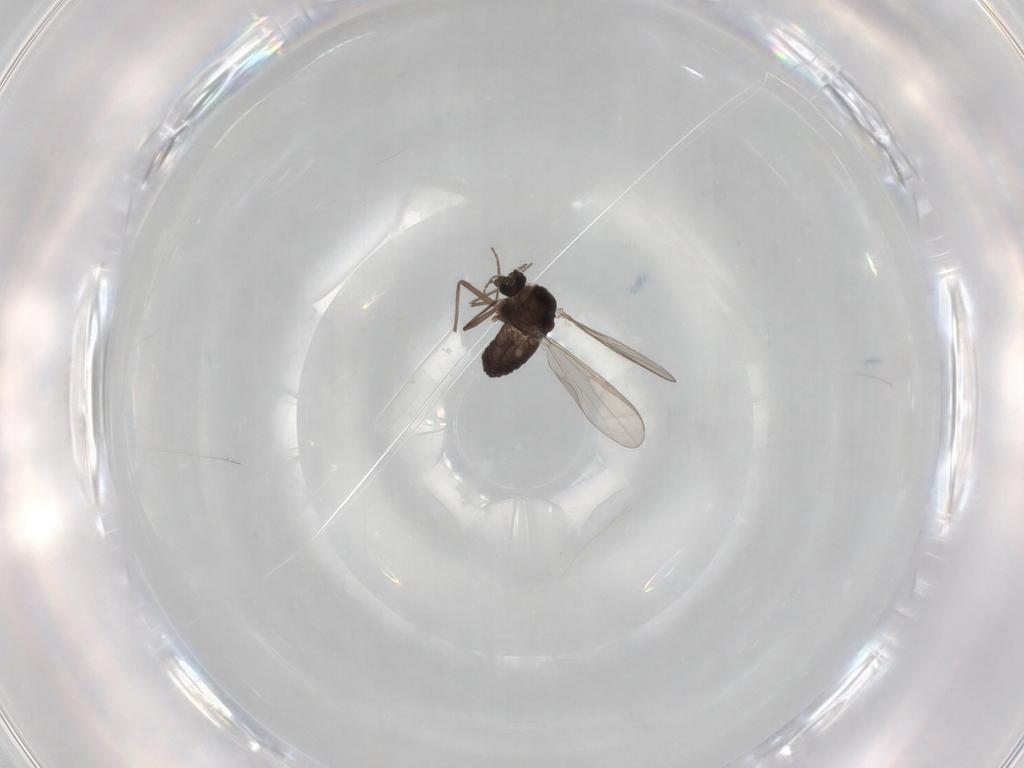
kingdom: Animalia
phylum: Arthropoda
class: Insecta
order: Diptera
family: Chironomidae
